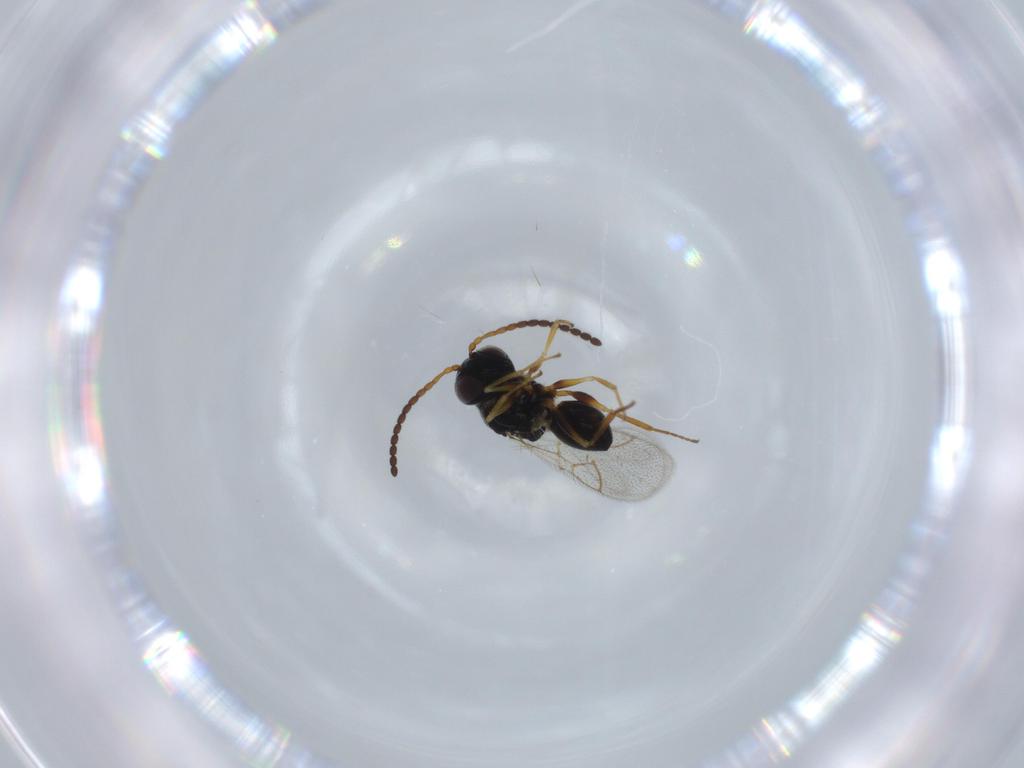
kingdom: Animalia
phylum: Arthropoda
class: Insecta
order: Hymenoptera
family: Figitidae
